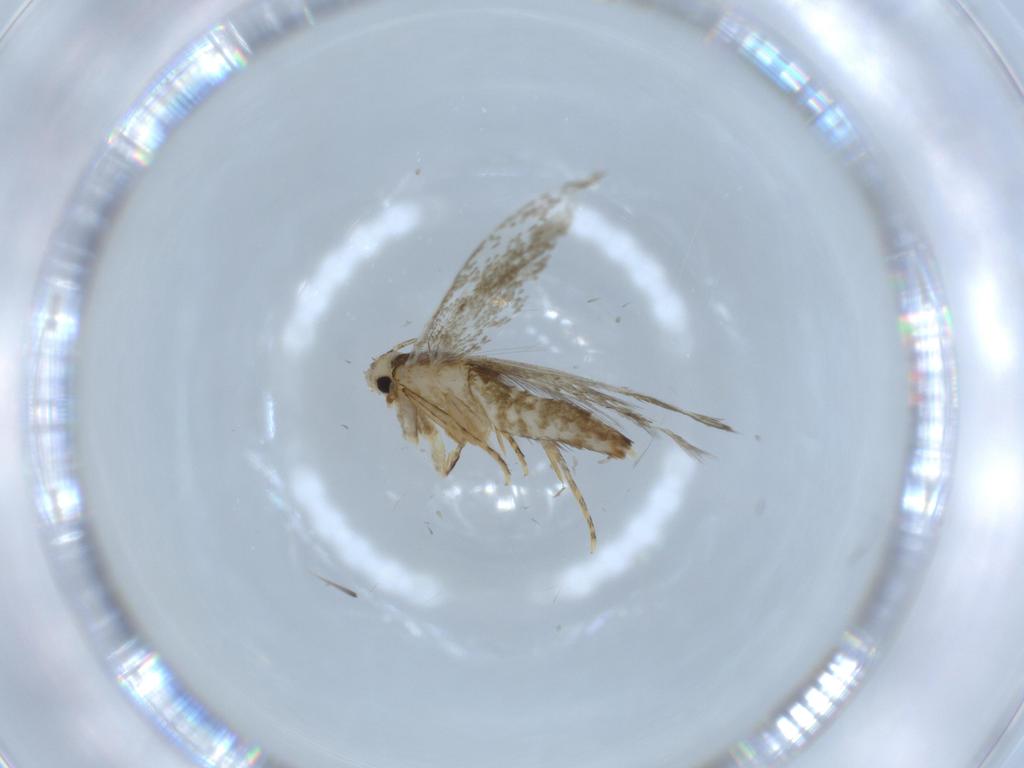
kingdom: Animalia
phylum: Arthropoda
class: Insecta
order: Lepidoptera
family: Tineidae
